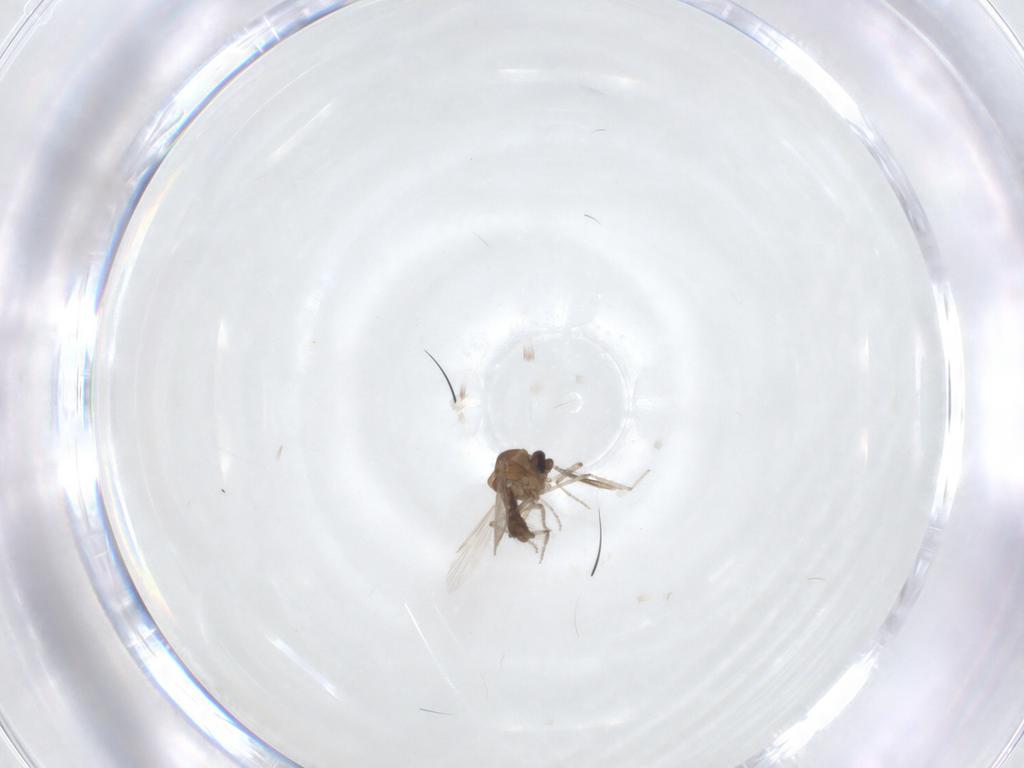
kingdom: Animalia
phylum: Arthropoda
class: Insecta
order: Diptera
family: Ceratopogonidae
